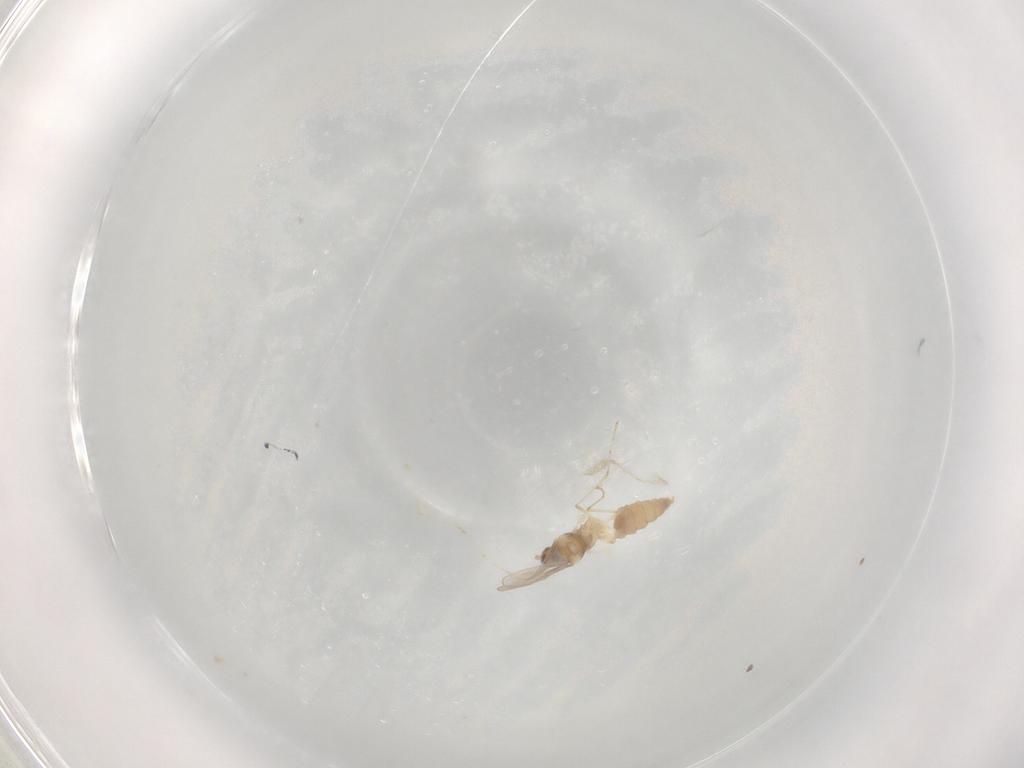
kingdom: Animalia
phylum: Arthropoda
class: Insecta
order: Diptera
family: Cecidomyiidae
